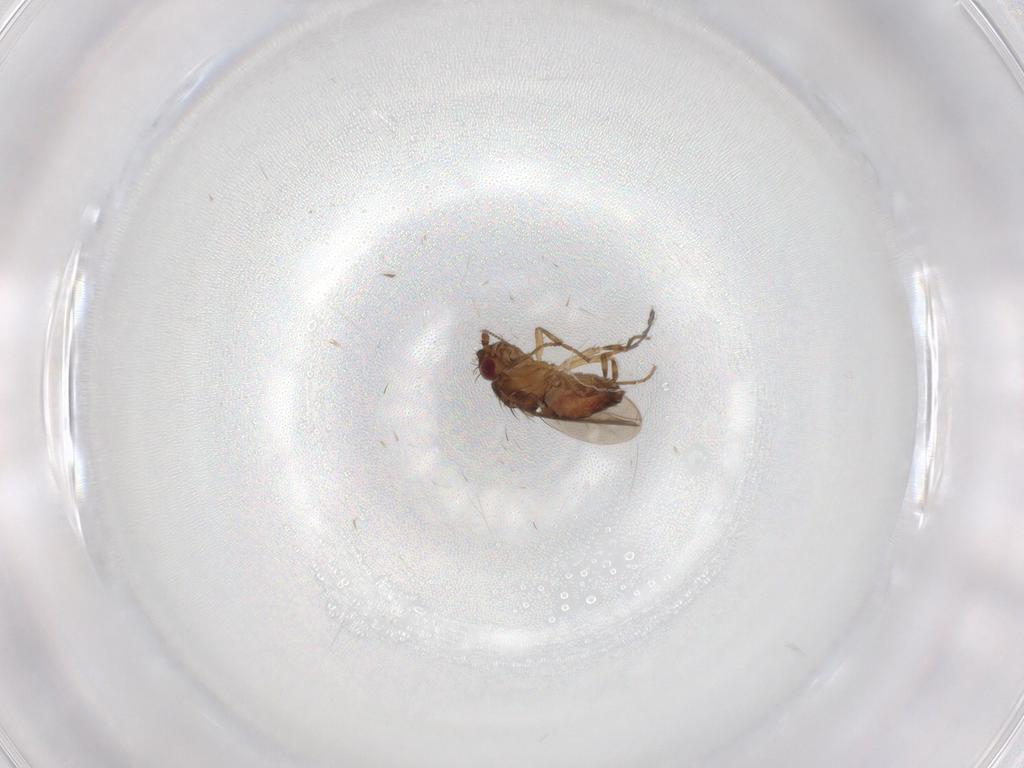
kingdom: Animalia
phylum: Arthropoda
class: Insecta
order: Diptera
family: Sphaeroceridae
